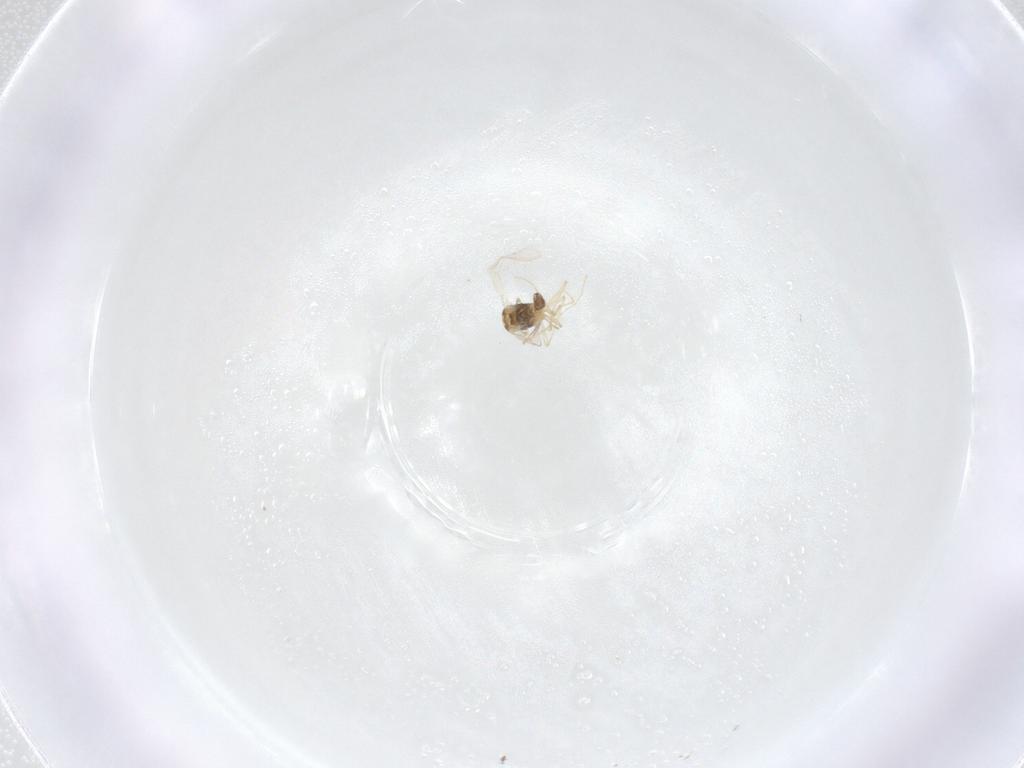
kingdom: Animalia
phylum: Arthropoda
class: Insecta
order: Diptera
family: Chironomidae
